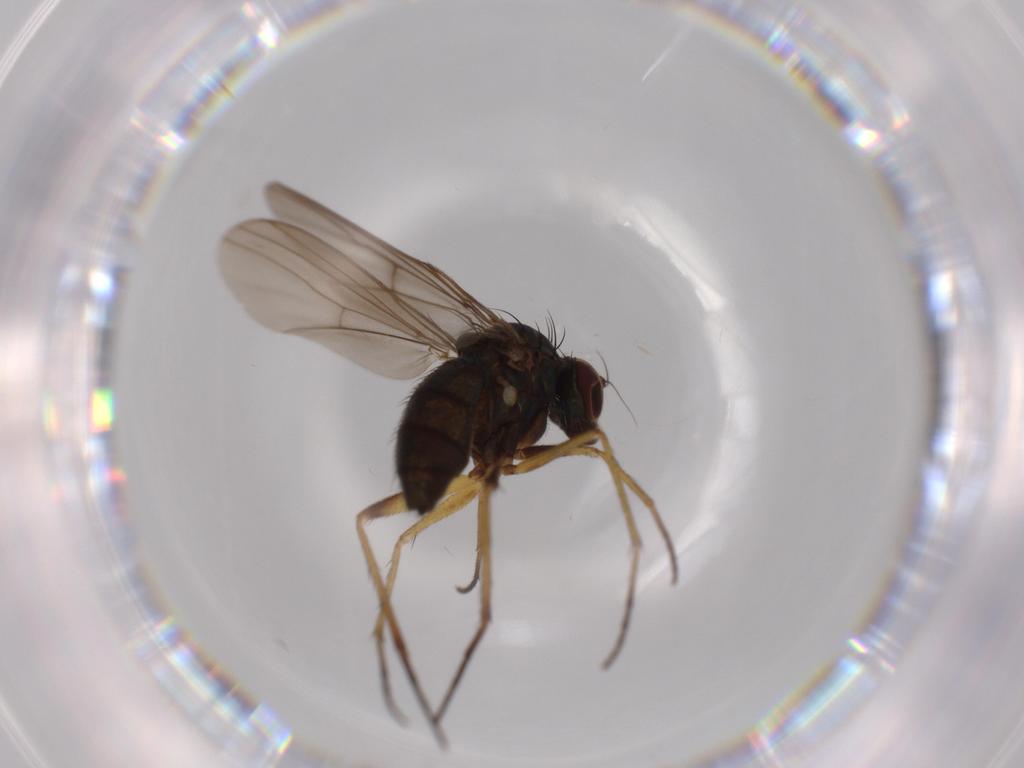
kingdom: Animalia
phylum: Arthropoda
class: Insecta
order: Diptera
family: Dolichopodidae
